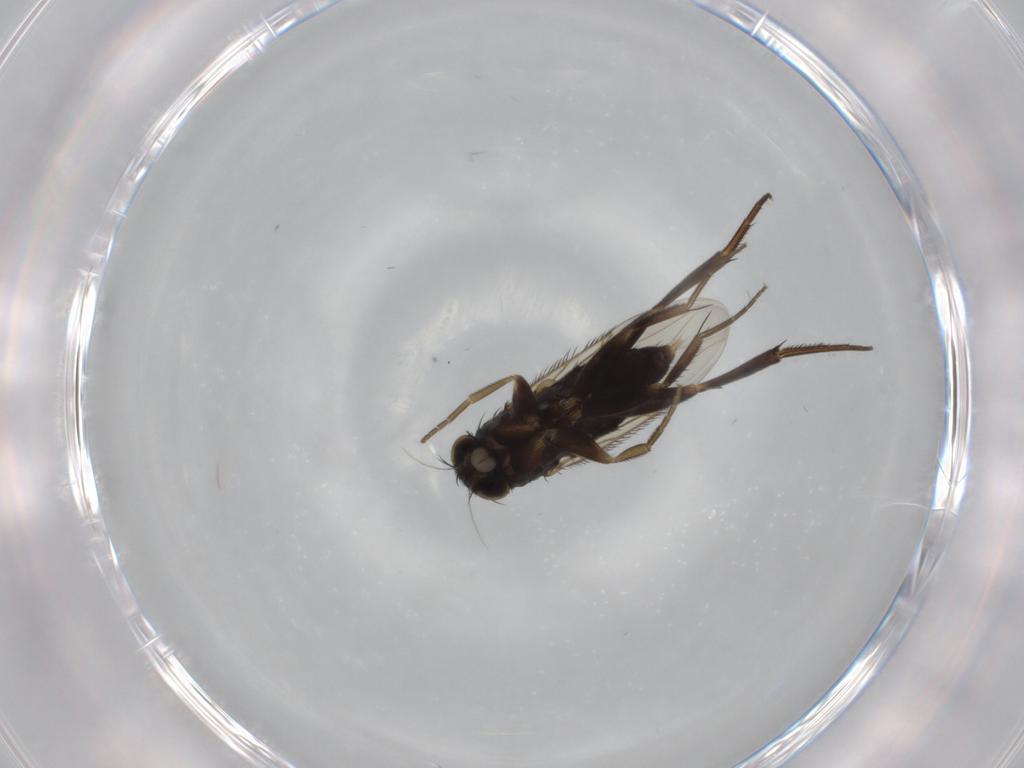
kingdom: Animalia
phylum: Arthropoda
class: Insecta
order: Diptera
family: Phoridae
